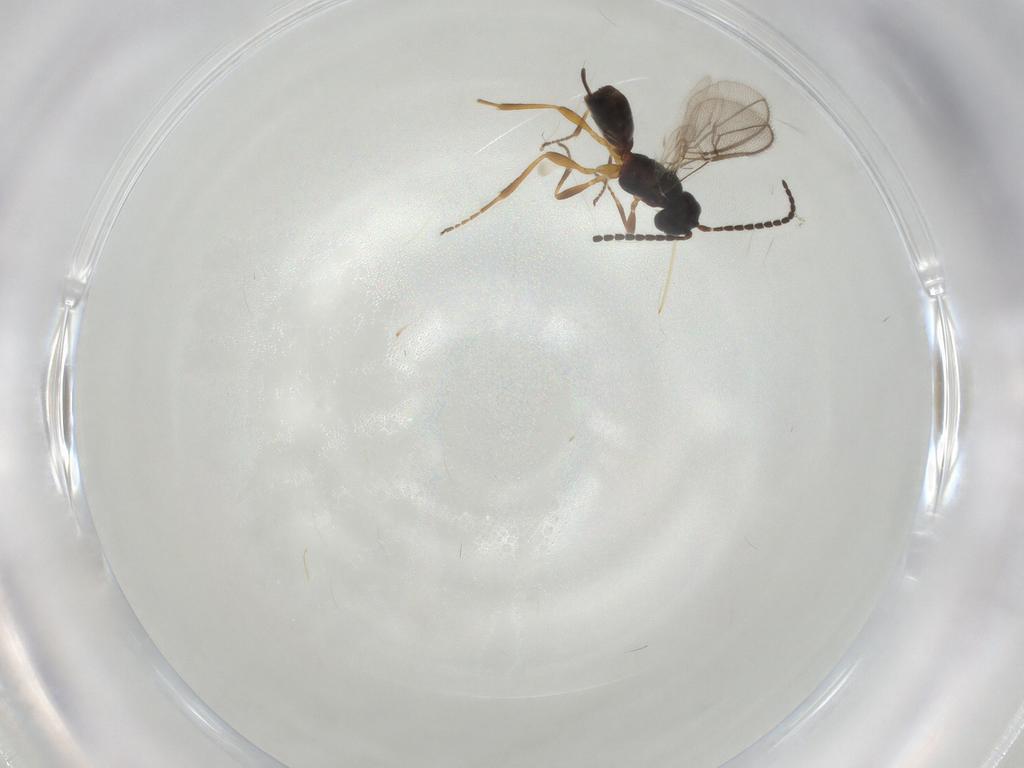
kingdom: Animalia
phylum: Arthropoda
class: Insecta
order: Hymenoptera
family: Braconidae
